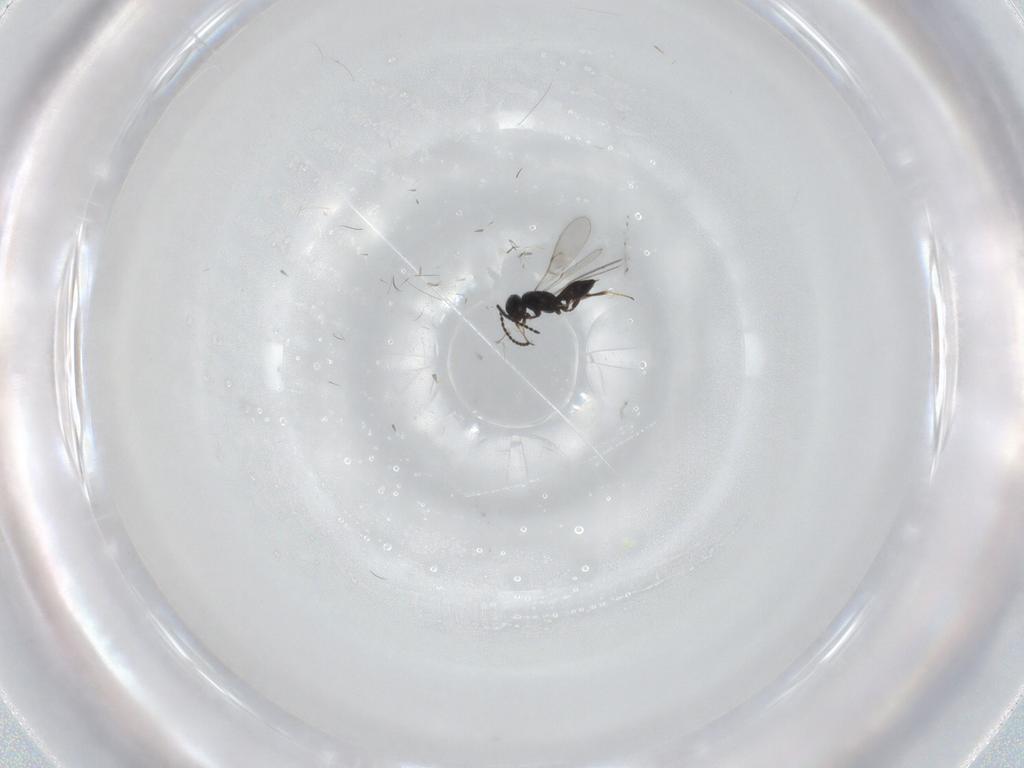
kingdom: Animalia
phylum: Arthropoda
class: Insecta
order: Hymenoptera
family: Scelionidae
